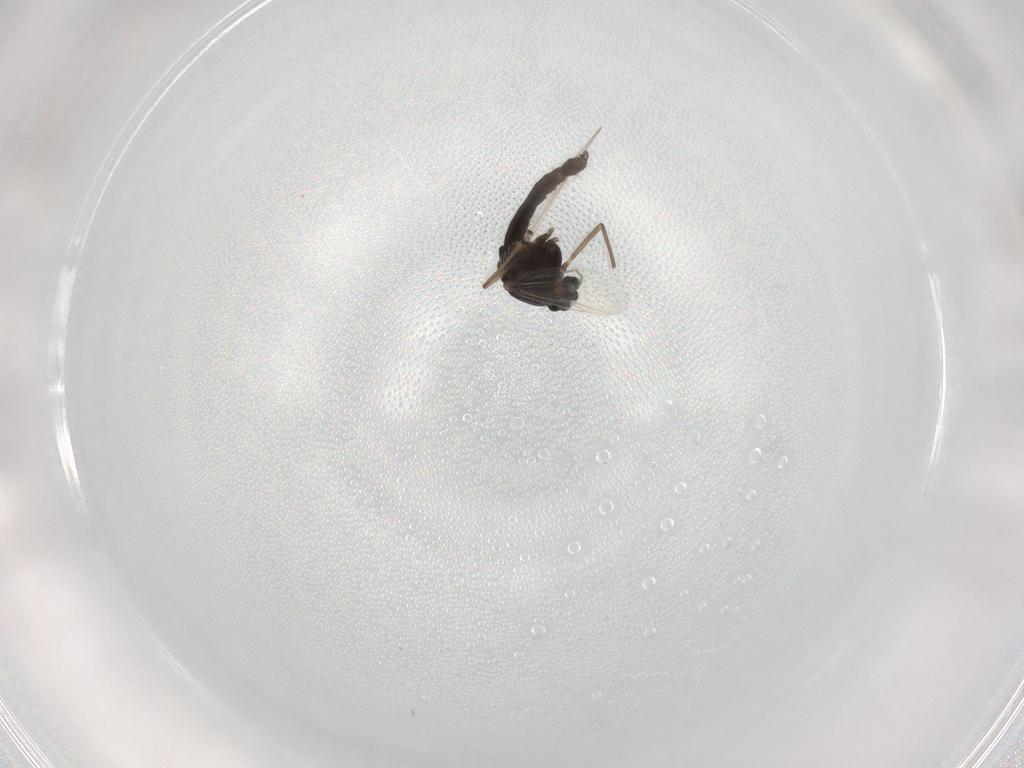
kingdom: Animalia
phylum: Arthropoda
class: Insecta
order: Diptera
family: Chironomidae
